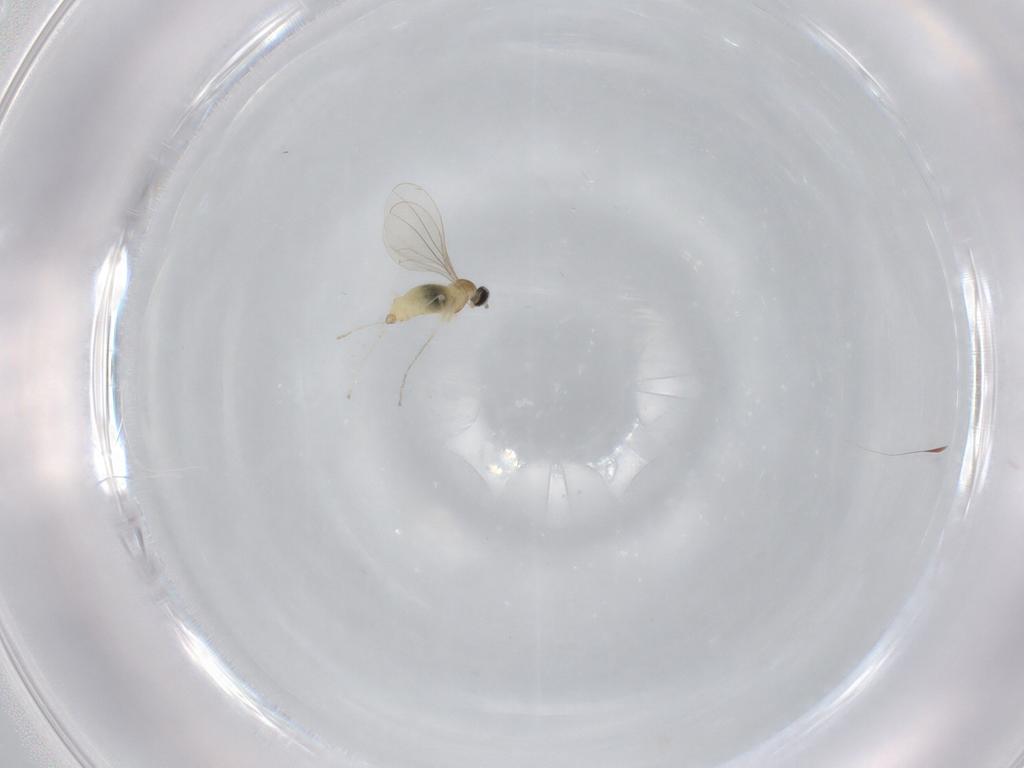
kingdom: Animalia
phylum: Arthropoda
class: Insecta
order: Diptera
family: Cecidomyiidae
